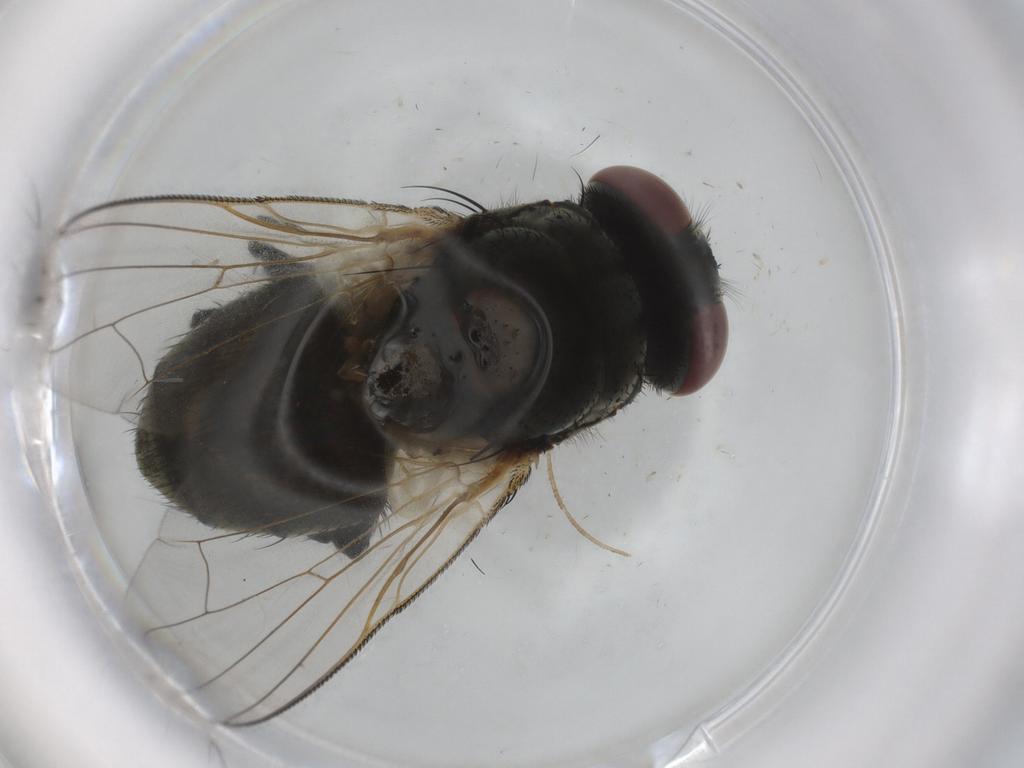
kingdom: Animalia
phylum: Arthropoda
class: Insecta
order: Diptera
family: Muscidae
